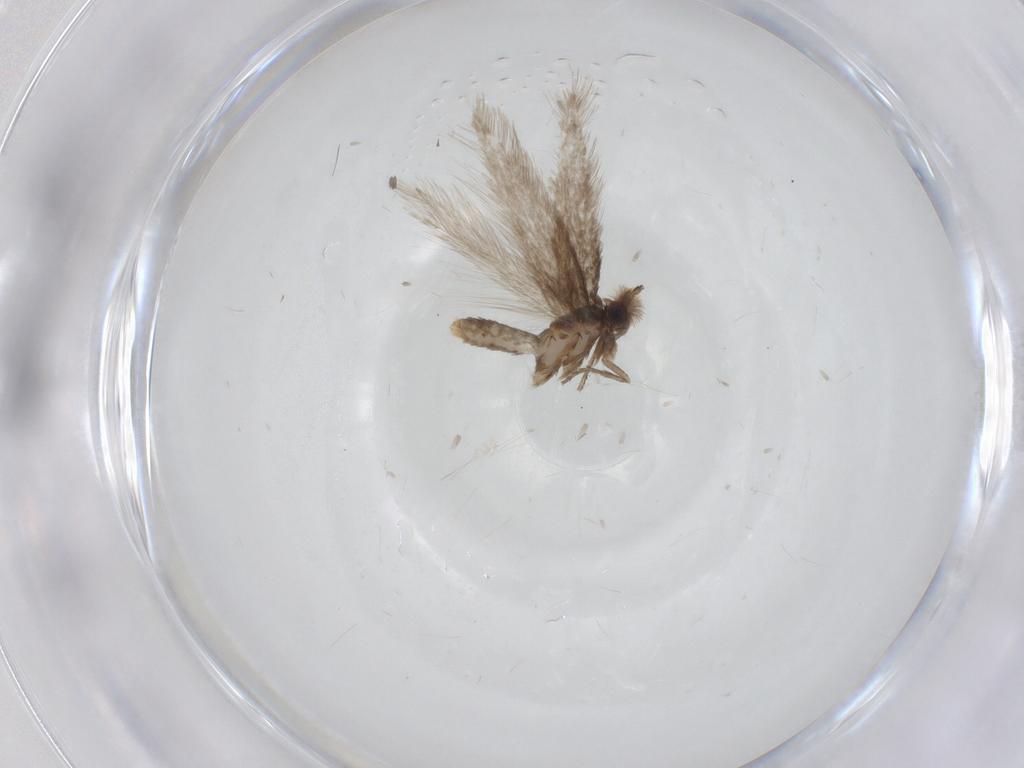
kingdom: Animalia
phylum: Arthropoda
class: Insecta
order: Lepidoptera
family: Nepticulidae
